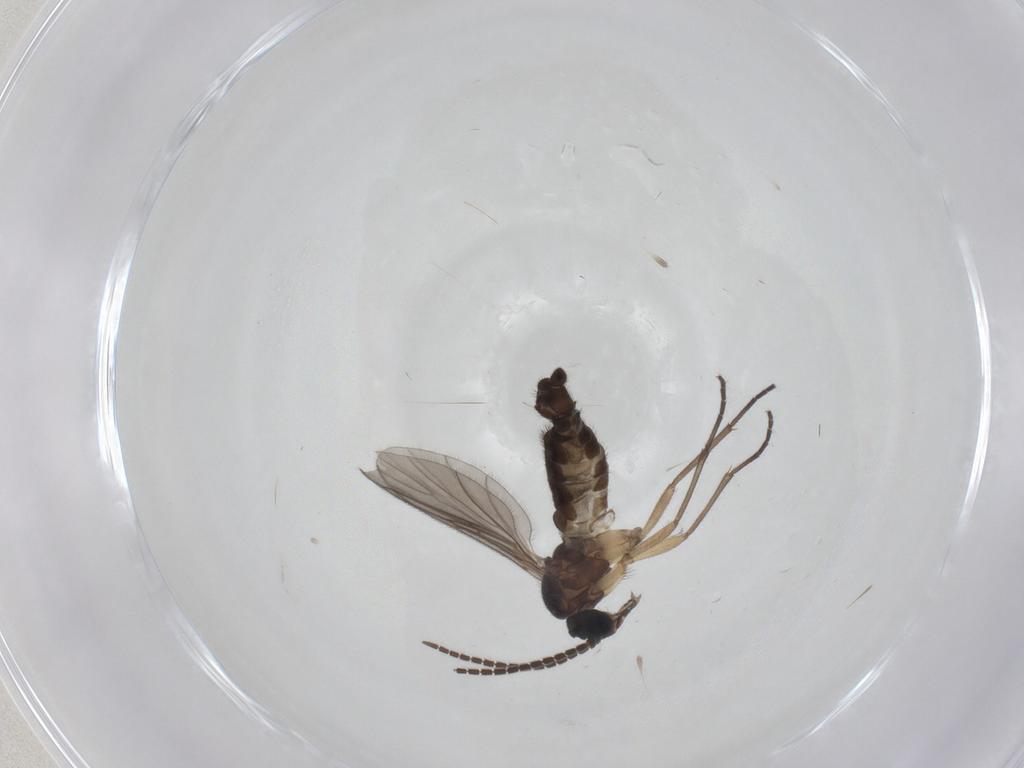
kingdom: Animalia
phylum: Arthropoda
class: Insecta
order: Diptera
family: Sciaridae
